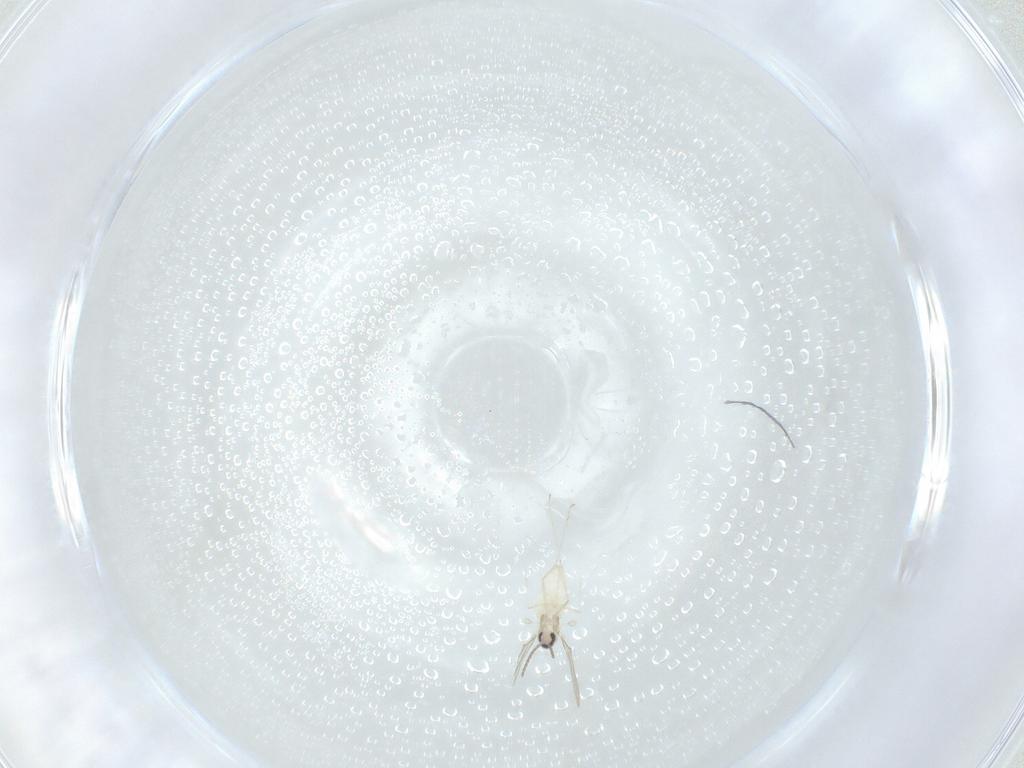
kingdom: Animalia
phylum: Arthropoda
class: Insecta
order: Diptera
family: Cecidomyiidae
